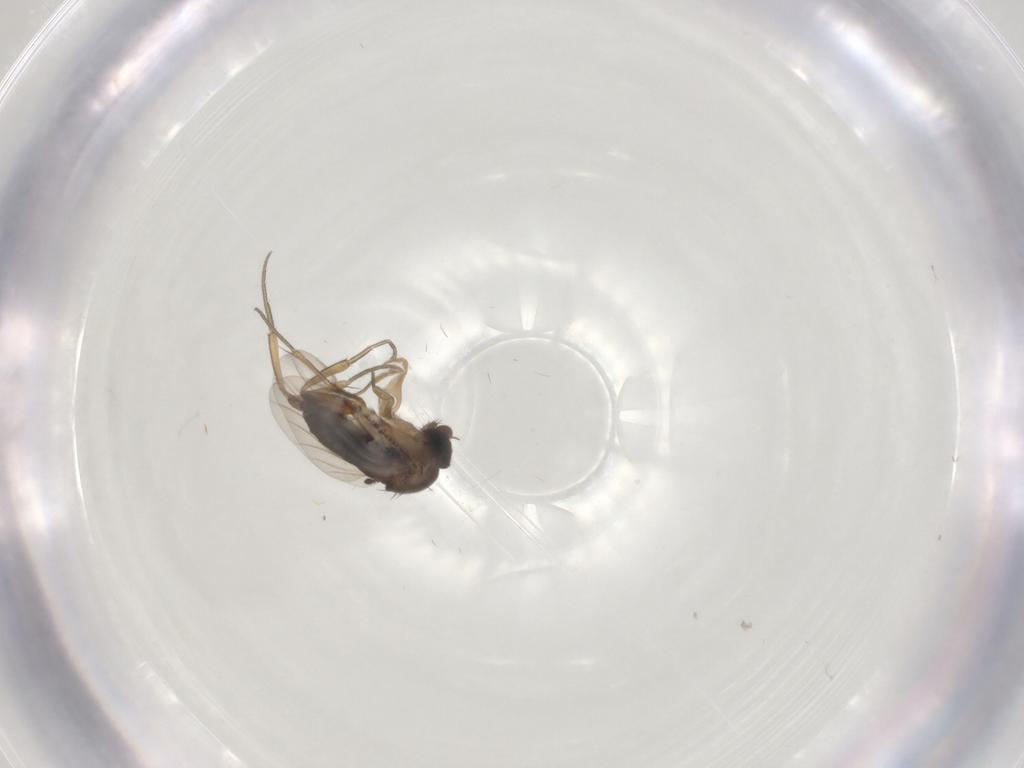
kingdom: Animalia
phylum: Arthropoda
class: Insecta
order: Diptera
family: Phoridae
